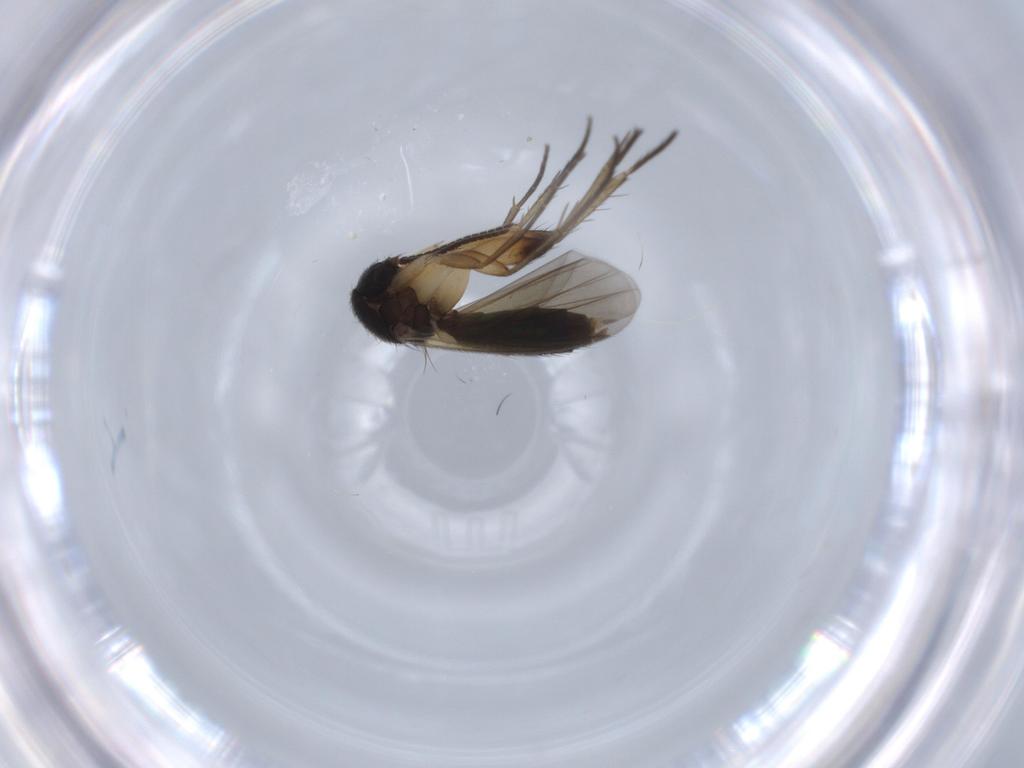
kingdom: Animalia
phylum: Arthropoda
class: Insecta
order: Diptera
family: Mycetophilidae
